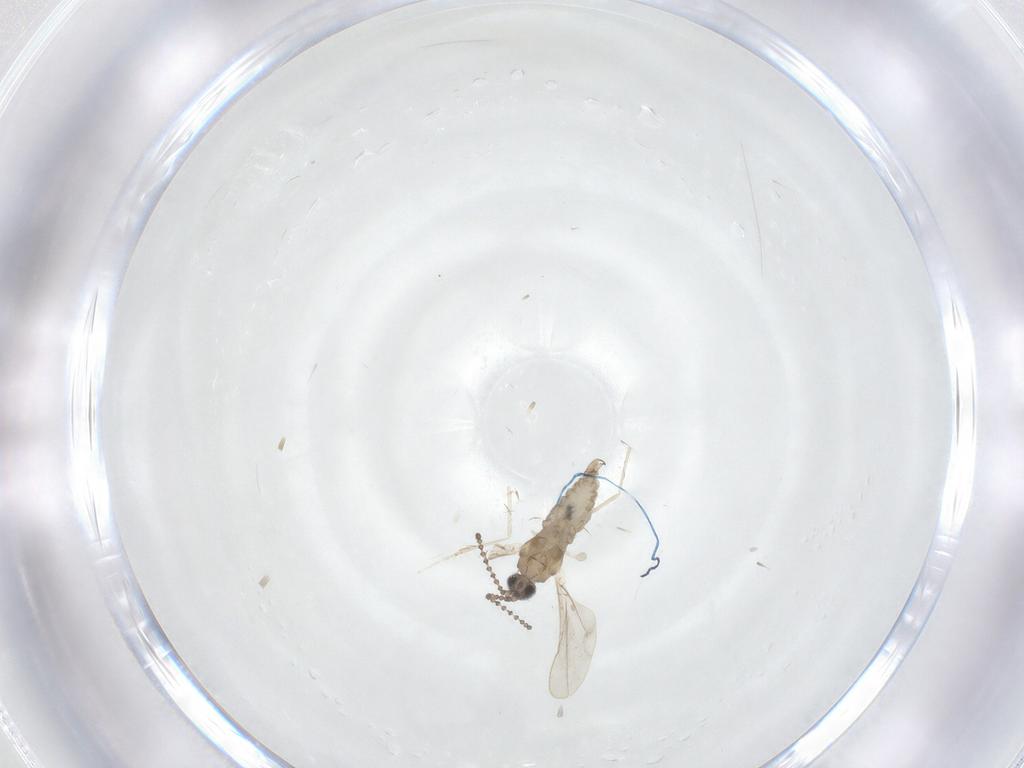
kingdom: Animalia
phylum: Arthropoda
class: Insecta
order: Diptera
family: Cecidomyiidae
